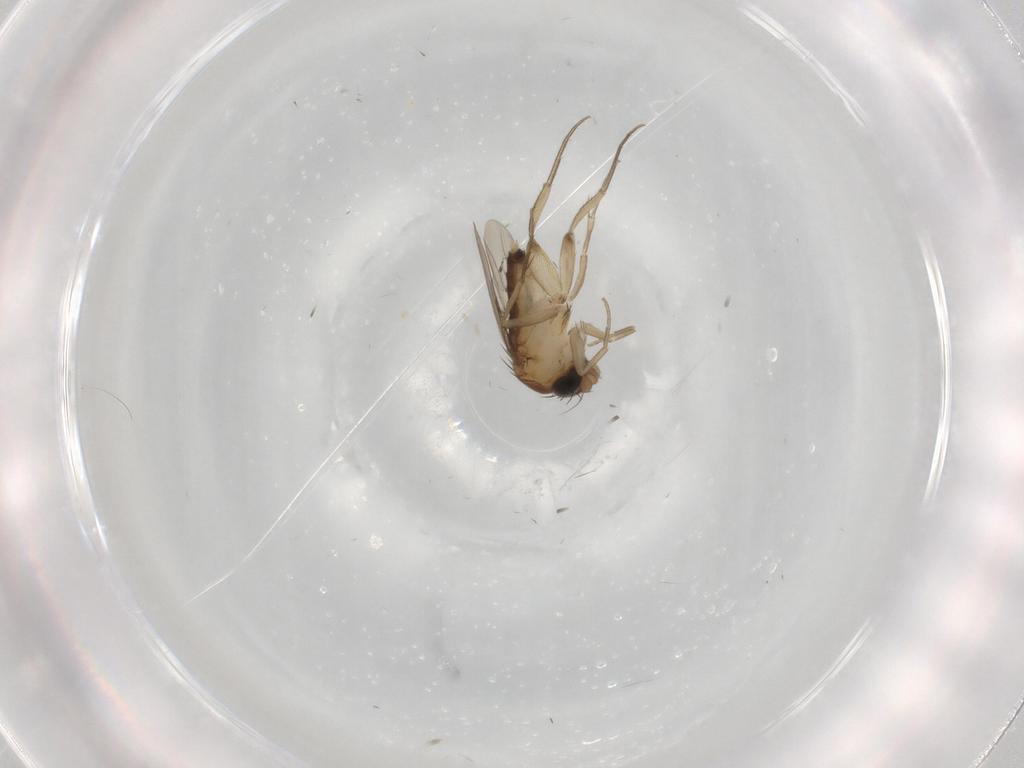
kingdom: Animalia
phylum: Arthropoda
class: Insecta
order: Diptera
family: Phoridae
